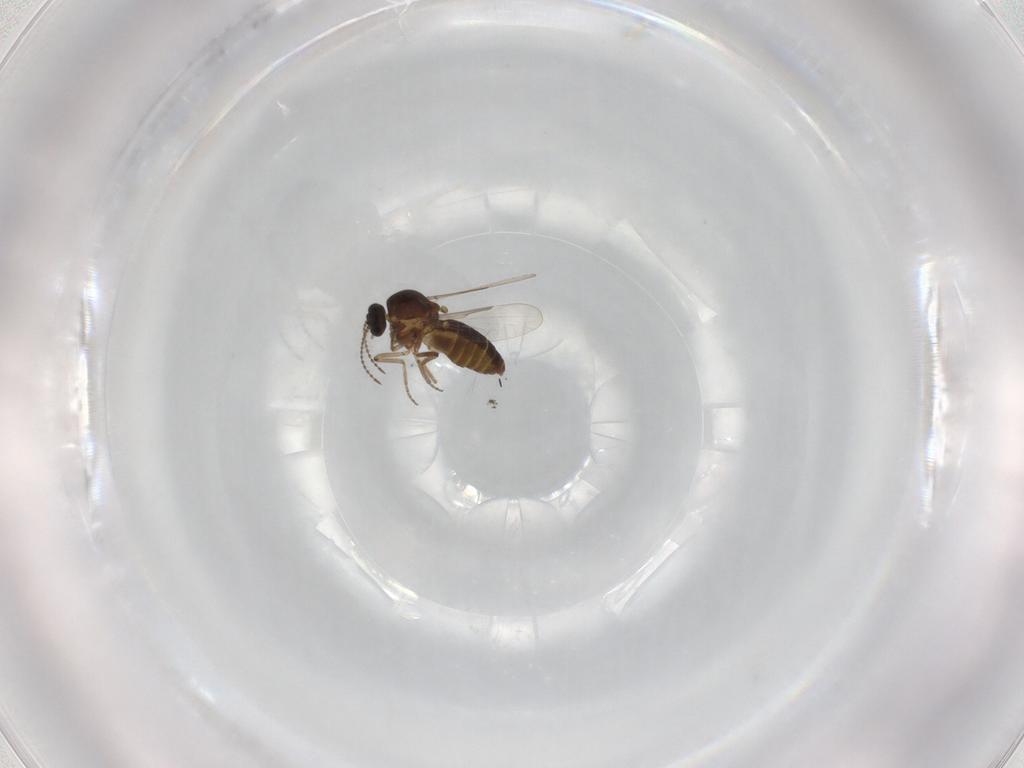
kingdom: Animalia
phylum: Arthropoda
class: Insecta
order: Diptera
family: Ceratopogonidae
